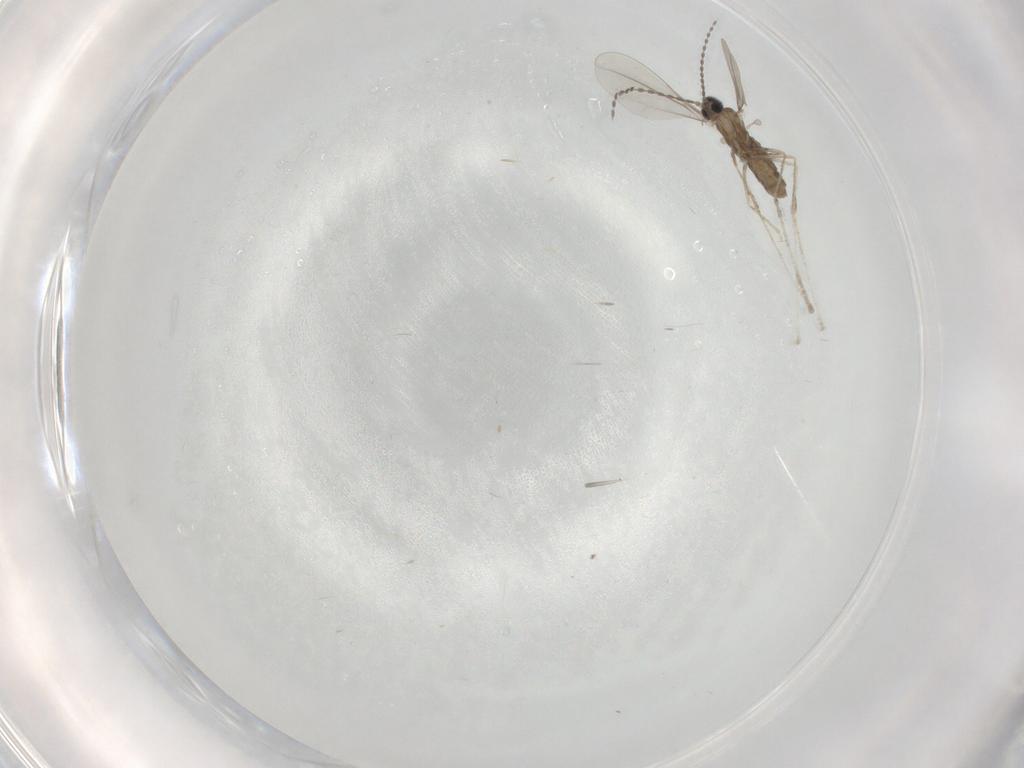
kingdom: Animalia
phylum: Arthropoda
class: Insecta
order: Diptera
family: Cecidomyiidae
